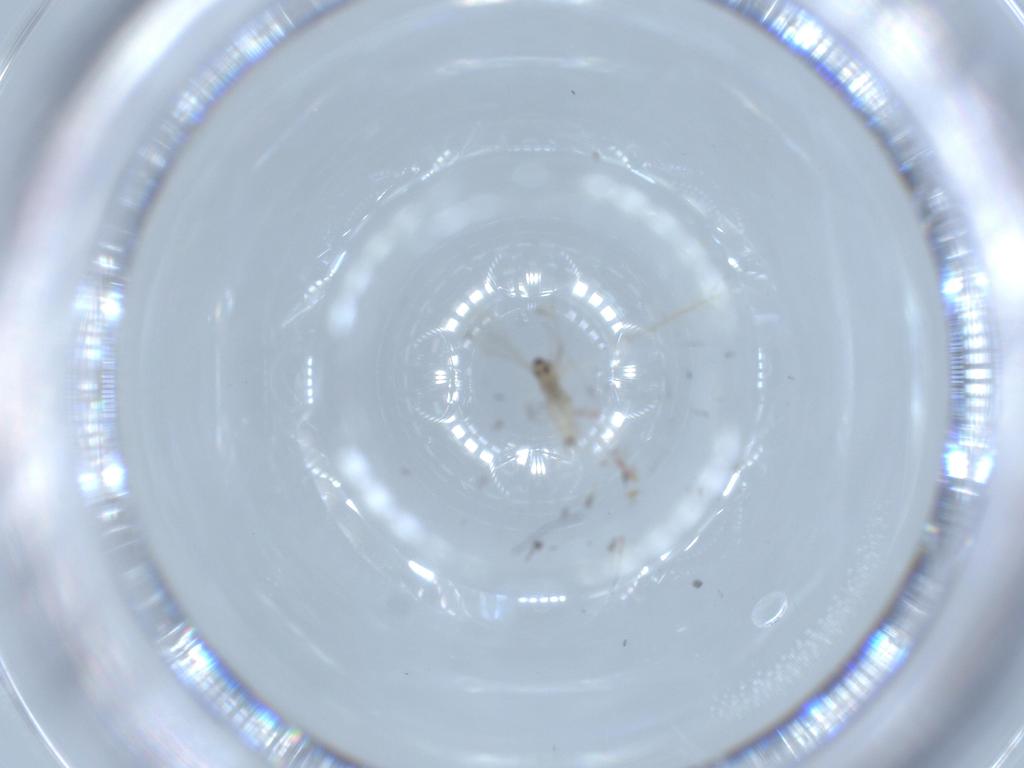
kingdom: Animalia
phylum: Arthropoda
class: Insecta
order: Diptera
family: Cecidomyiidae
